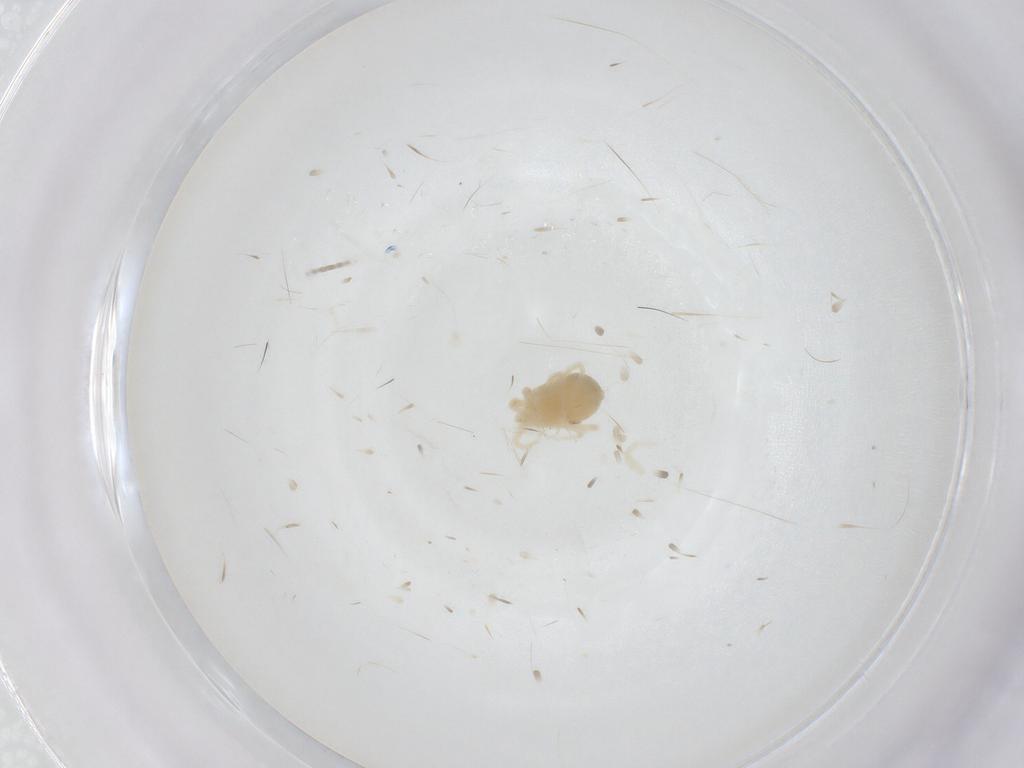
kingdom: Animalia
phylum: Arthropoda
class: Arachnida
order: Trombidiformes
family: Anystidae
